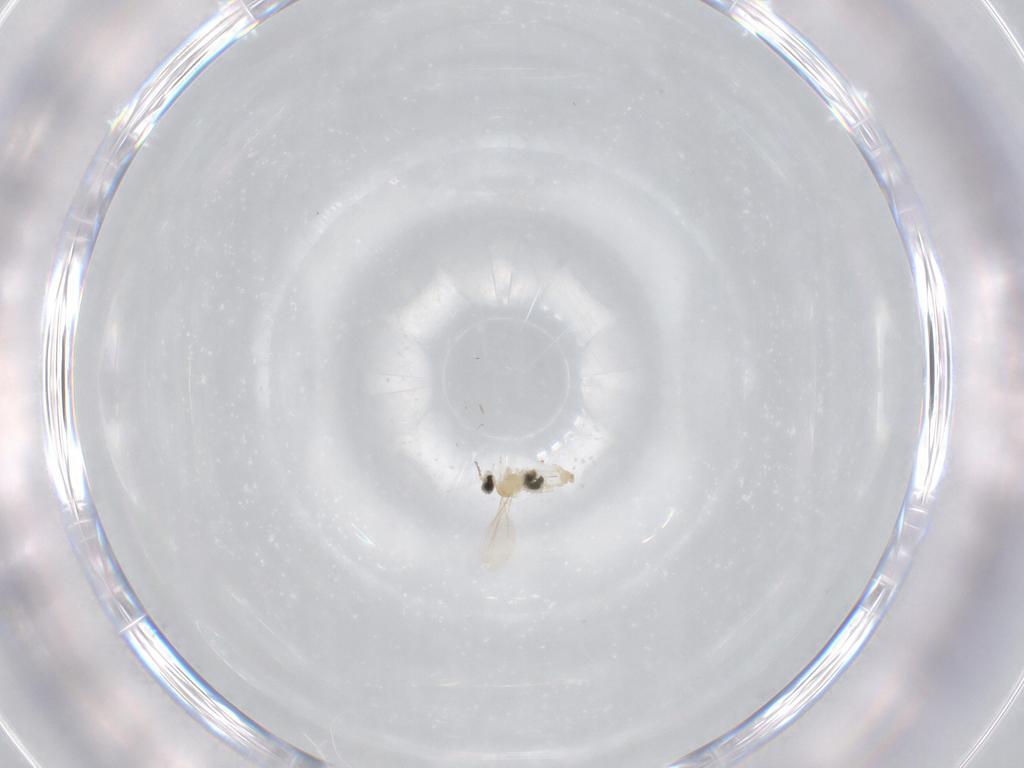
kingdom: Animalia
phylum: Arthropoda
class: Insecta
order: Diptera
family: Cecidomyiidae
